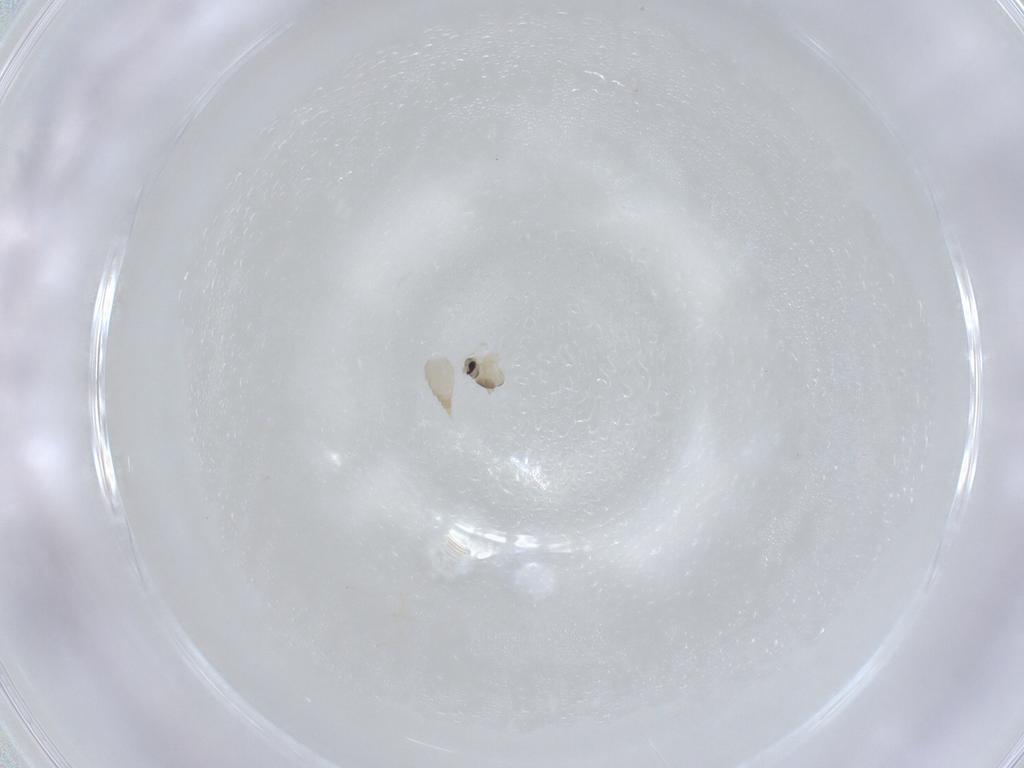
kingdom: Animalia
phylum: Arthropoda
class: Insecta
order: Diptera
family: Cecidomyiidae
